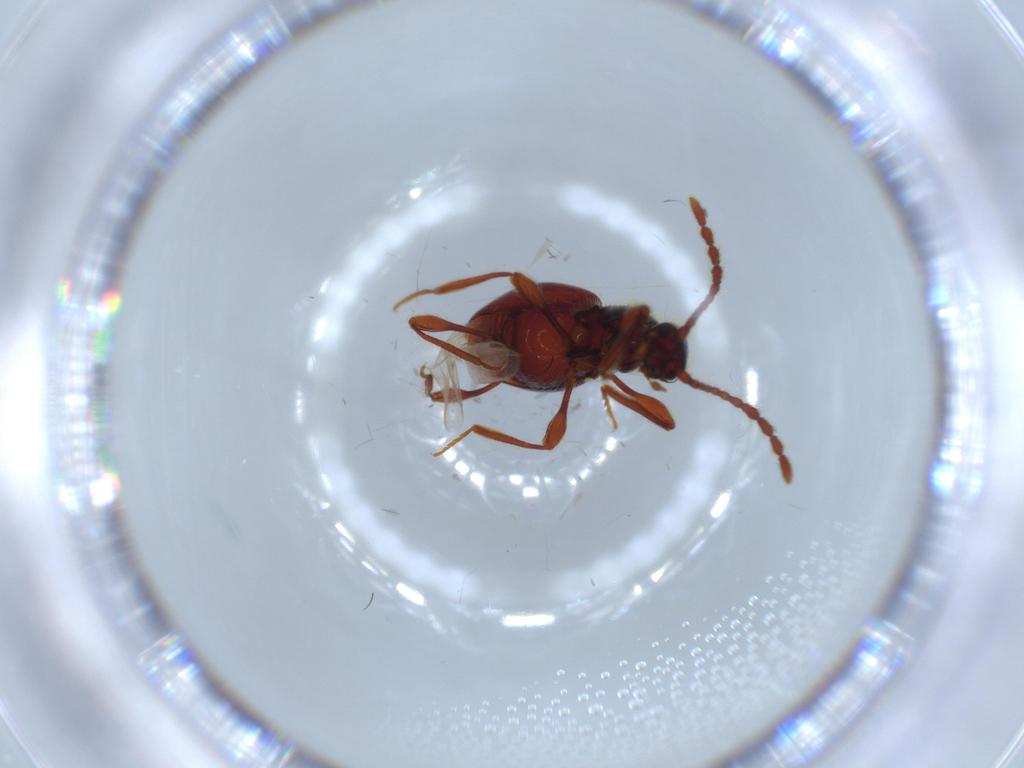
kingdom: Animalia
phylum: Arthropoda
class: Insecta
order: Coleoptera
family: Staphylinidae
